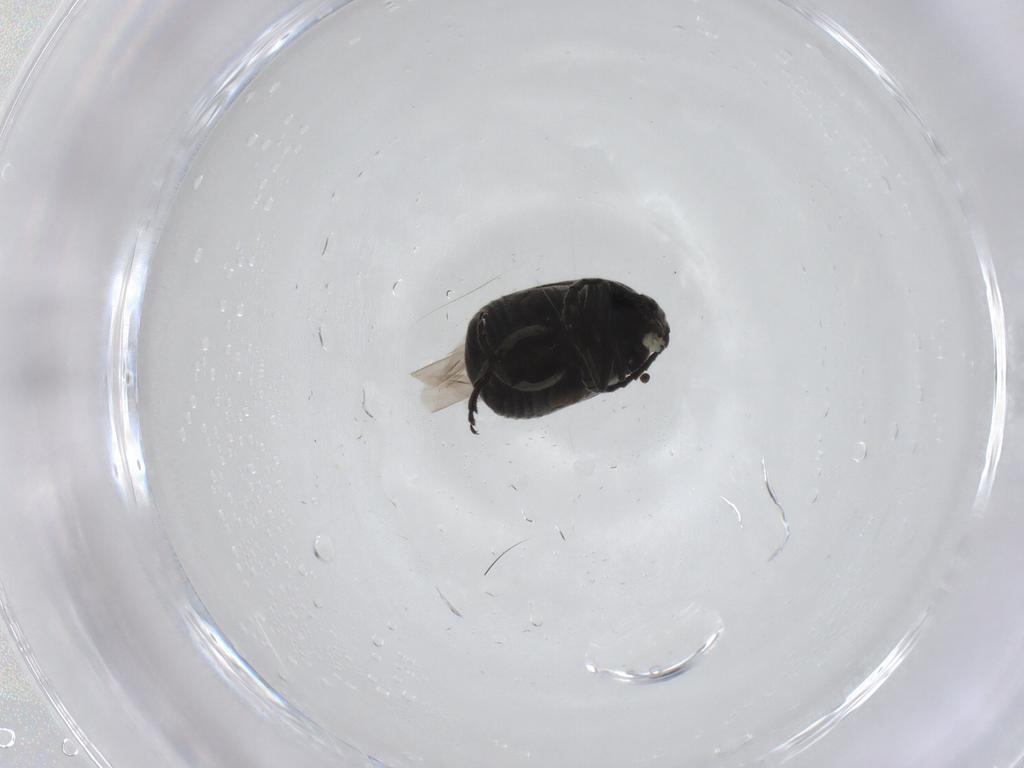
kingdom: Animalia
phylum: Arthropoda
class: Insecta
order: Coleoptera
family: Chrysomelidae
